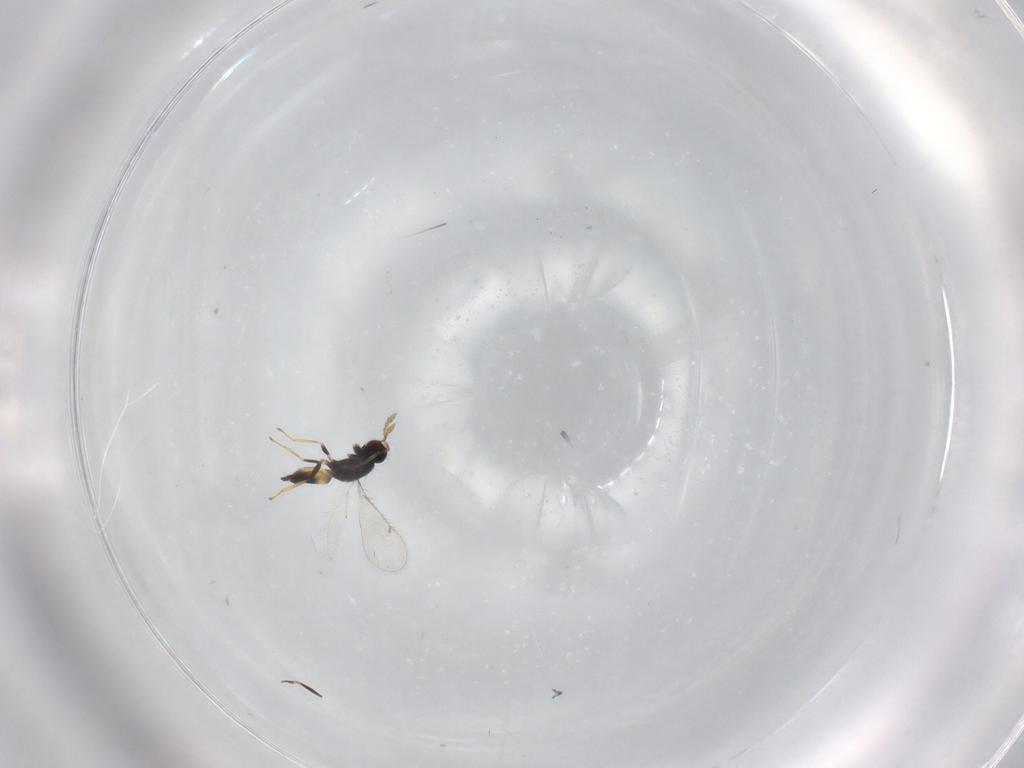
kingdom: Animalia
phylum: Arthropoda
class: Insecta
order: Hymenoptera
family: Eulophidae
